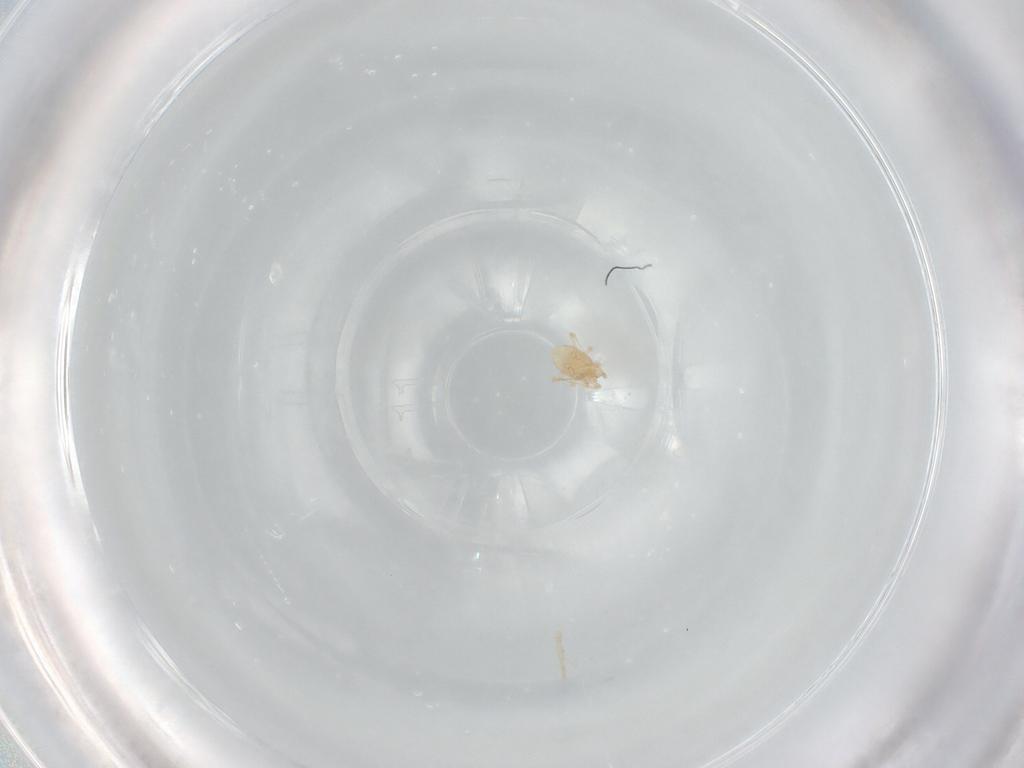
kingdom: Animalia
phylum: Arthropoda
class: Arachnida
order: Mesostigmata
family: Melicharidae
